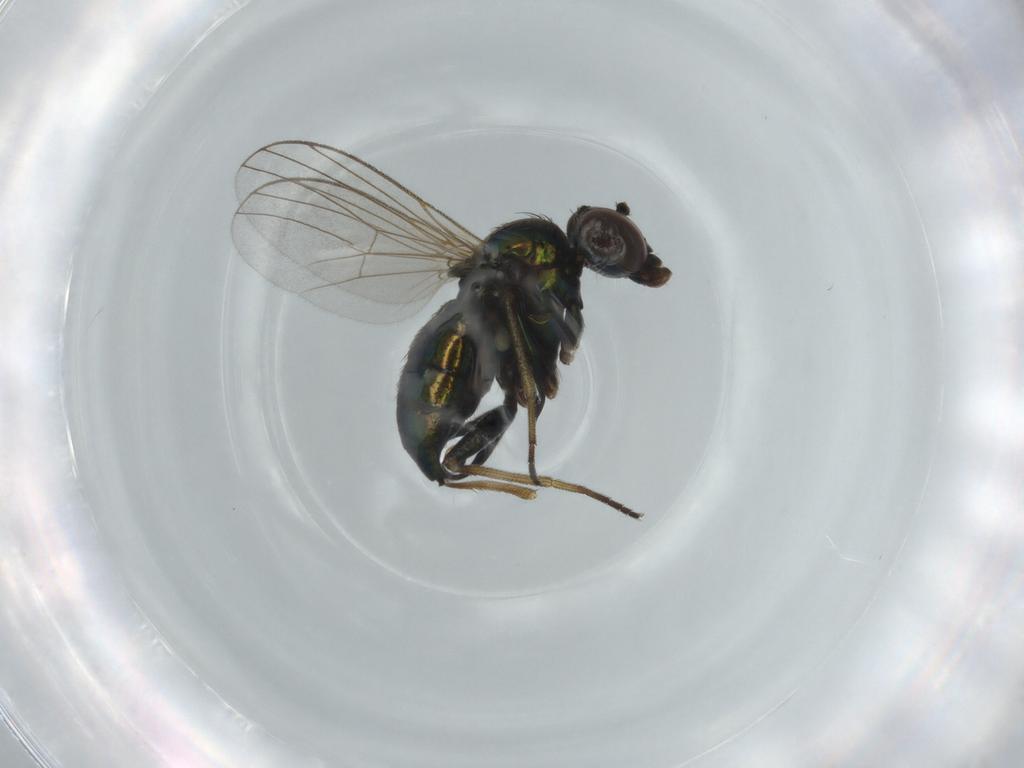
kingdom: Animalia
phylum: Arthropoda
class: Insecta
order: Diptera
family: Dolichopodidae
